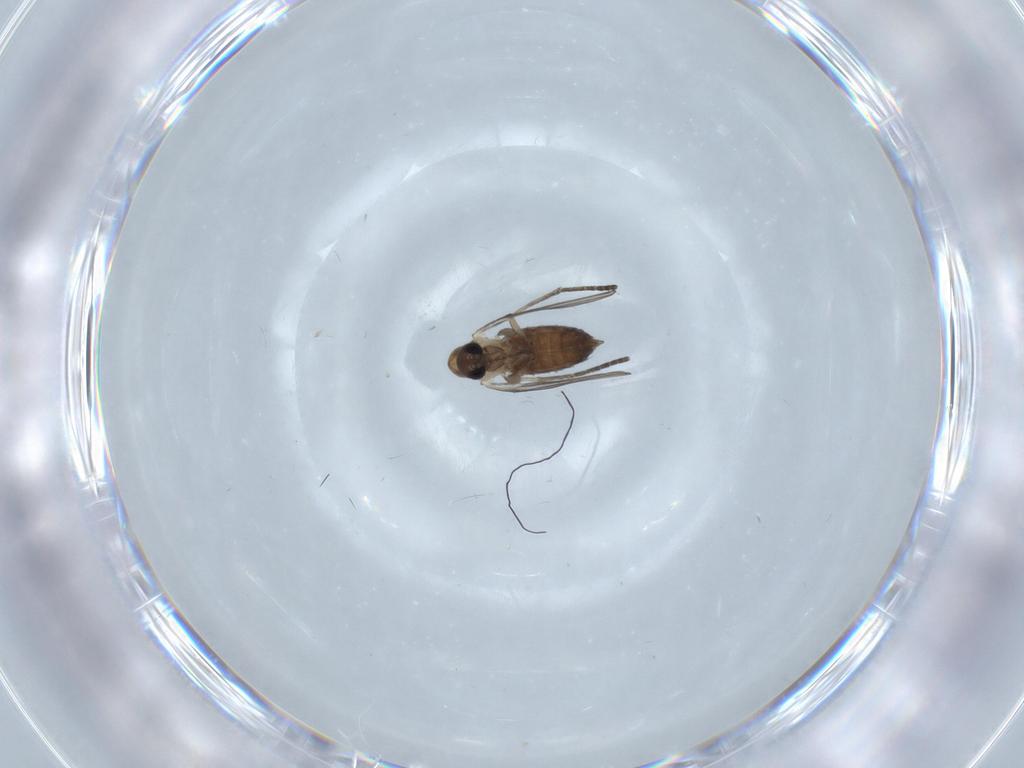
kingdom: Animalia
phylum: Arthropoda
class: Insecta
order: Diptera
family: Psychodidae
